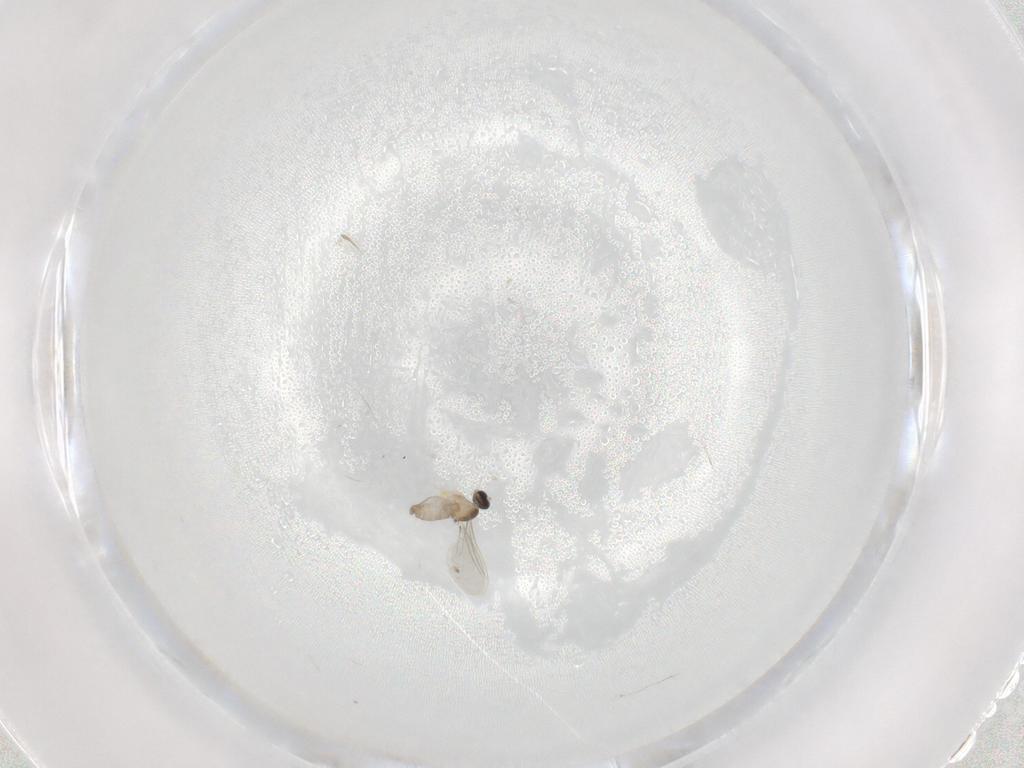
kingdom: Animalia
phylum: Arthropoda
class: Insecta
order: Diptera
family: Cecidomyiidae
